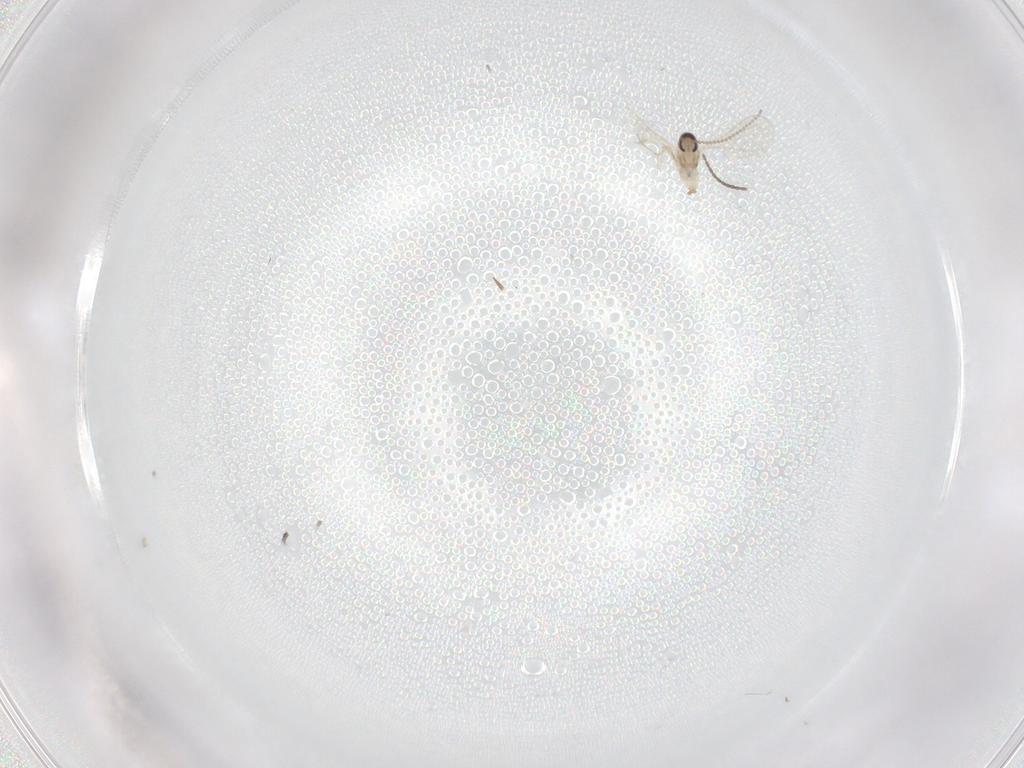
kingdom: Animalia
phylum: Arthropoda
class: Insecta
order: Diptera
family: Cecidomyiidae
